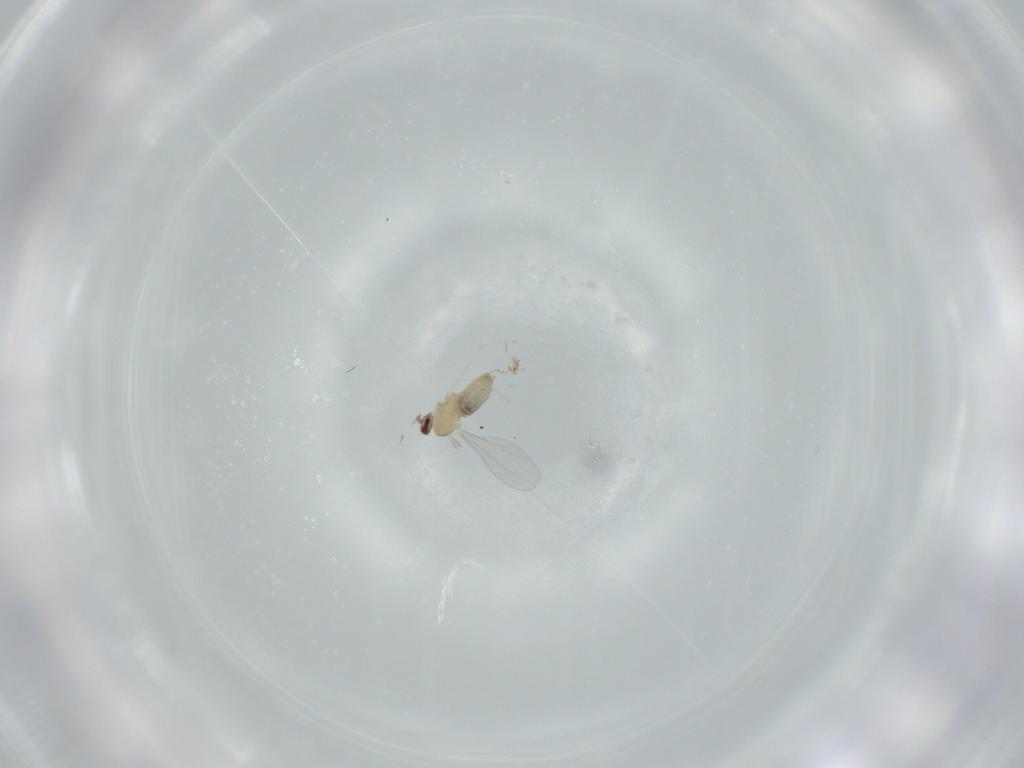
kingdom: Animalia
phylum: Arthropoda
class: Insecta
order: Diptera
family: Cecidomyiidae
